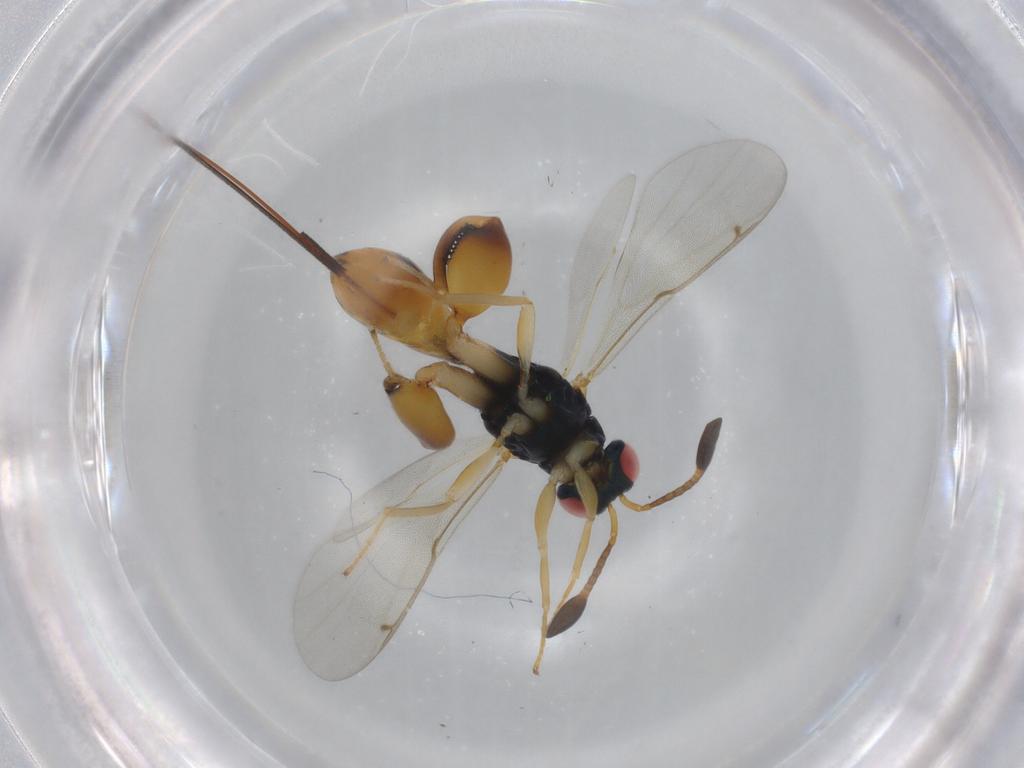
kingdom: Animalia
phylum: Arthropoda
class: Insecta
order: Hymenoptera
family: Torymidae
